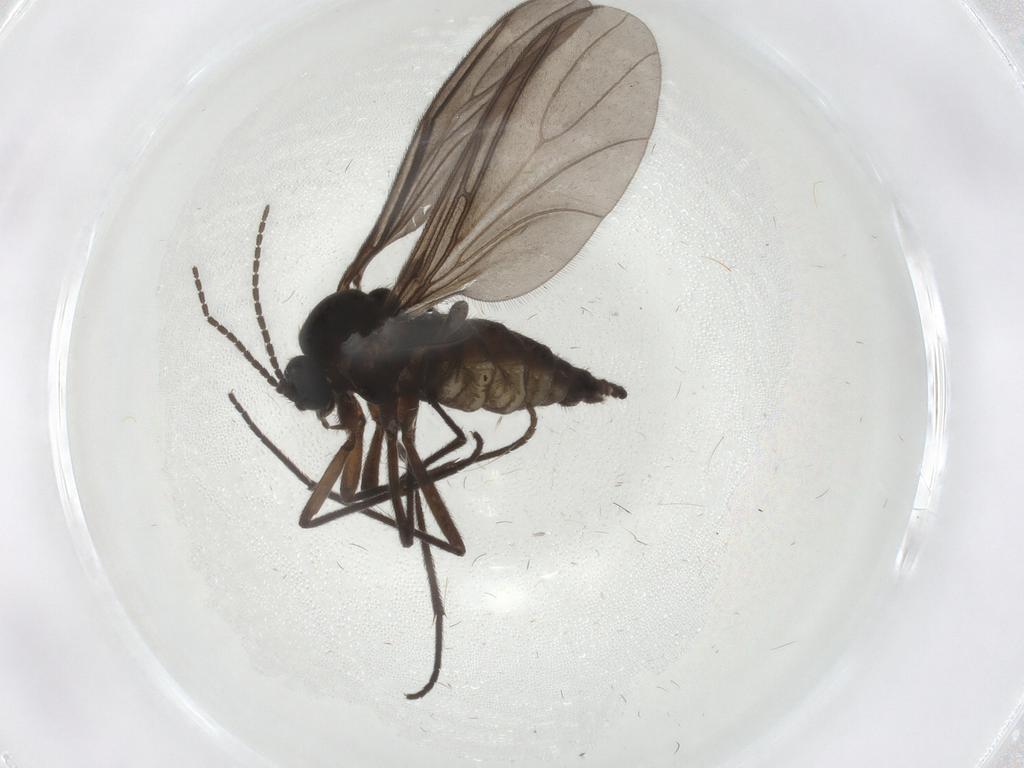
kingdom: Animalia
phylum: Arthropoda
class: Insecta
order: Diptera
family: Sciaridae
